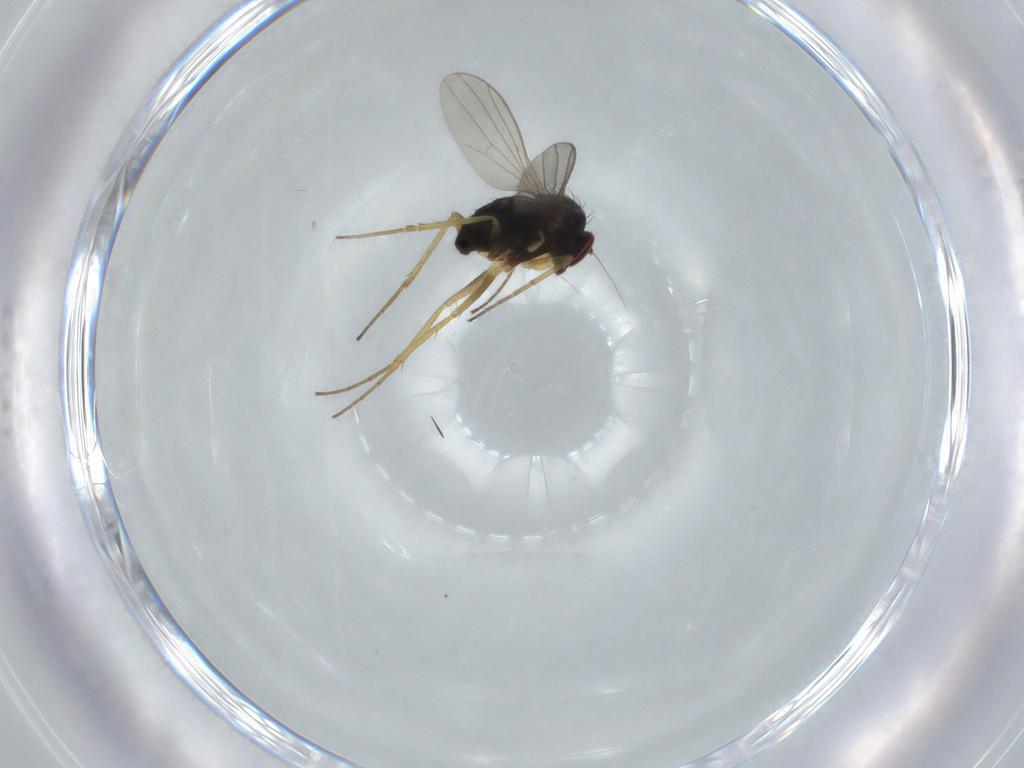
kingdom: Animalia
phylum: Arthropoda
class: Insecta
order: Diptera
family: Dolichopodidae
